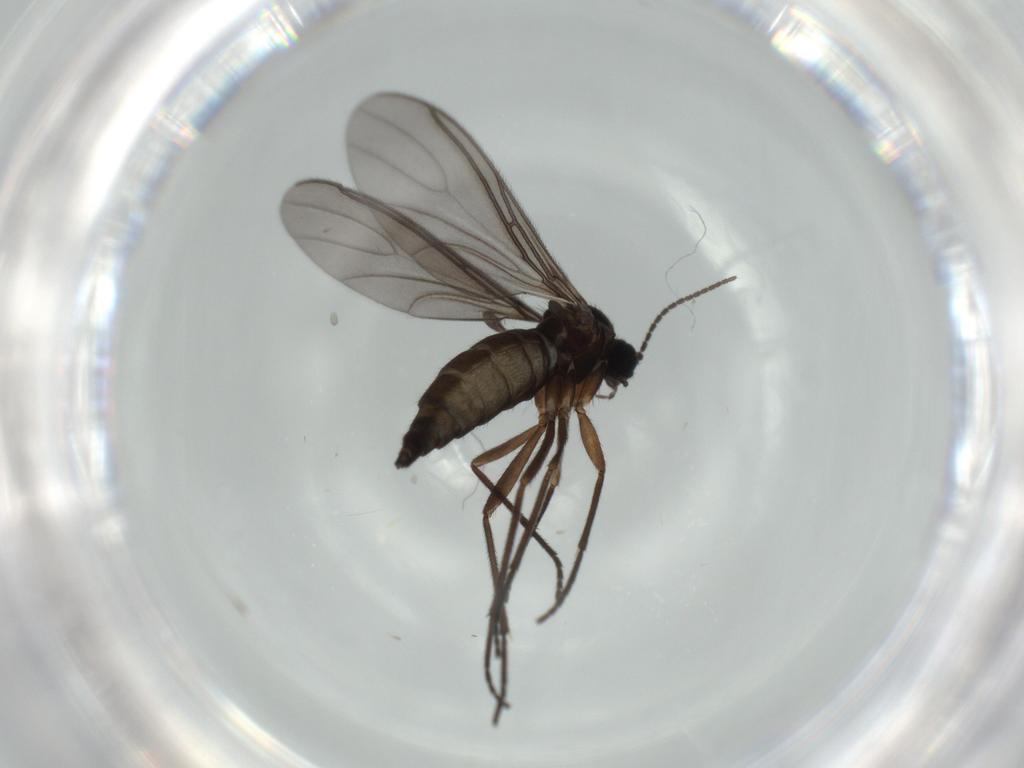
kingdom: Animalia
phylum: Arthropoda
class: Insecta
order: Diptera
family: Sciaridae
